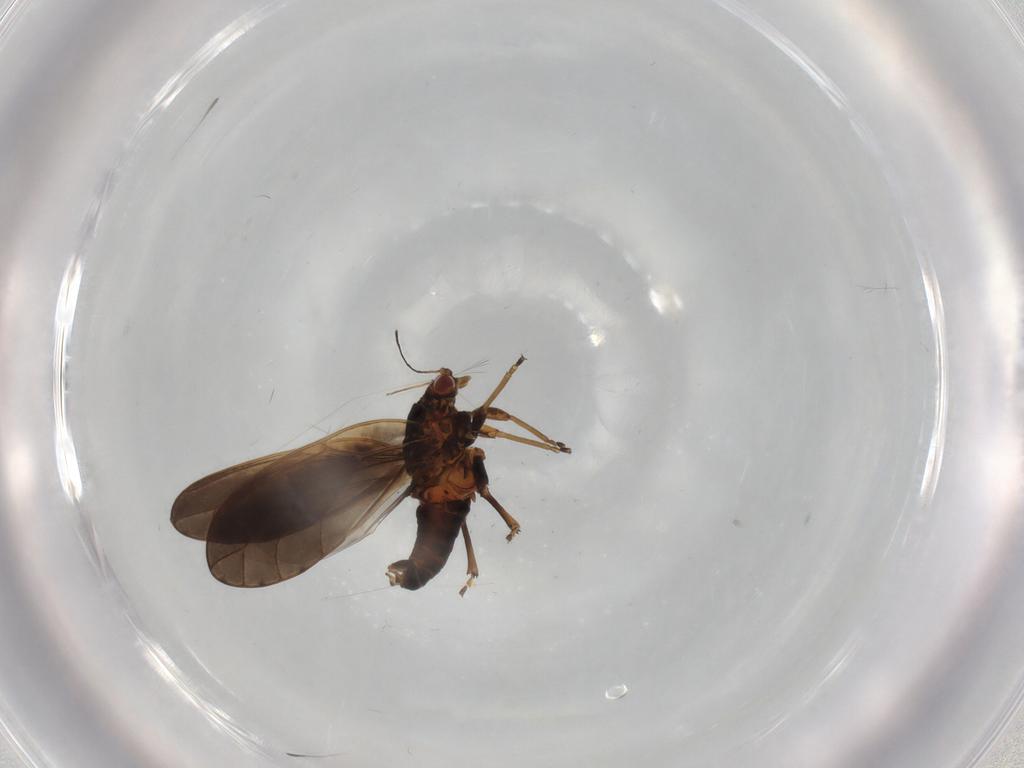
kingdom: Animalia
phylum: Arthropoda
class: Insecta
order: Hemiptera
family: Triozidae
